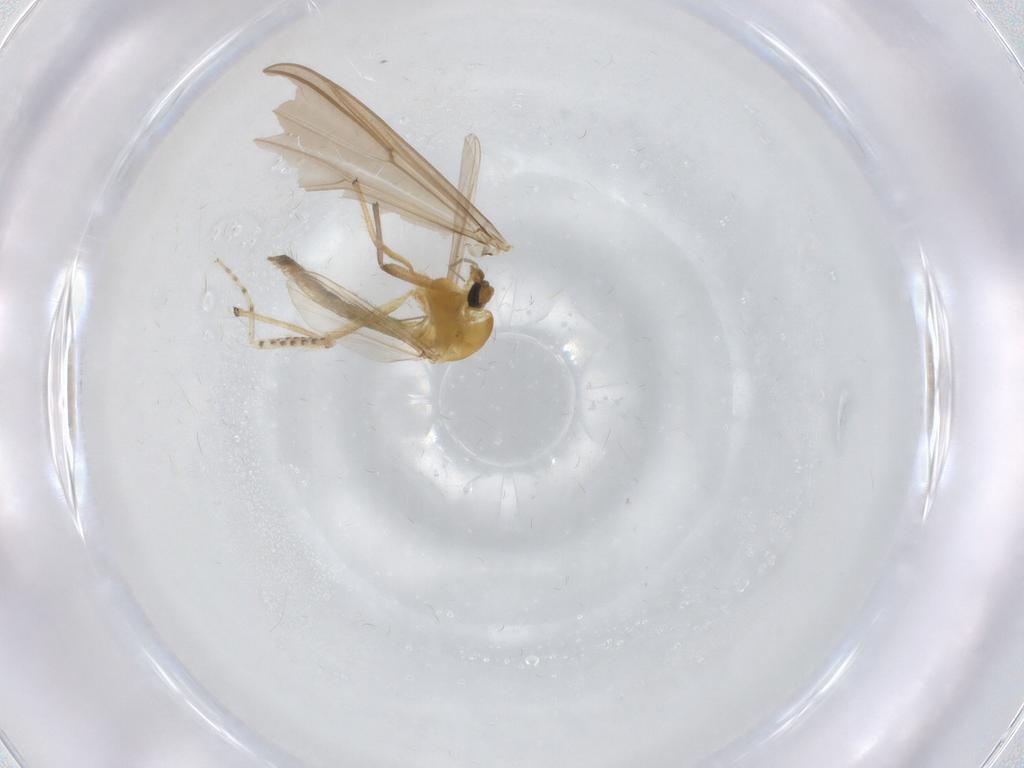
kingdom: Animalia
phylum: Arthropoda
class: Insecta
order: Diptera
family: Chironomidae
